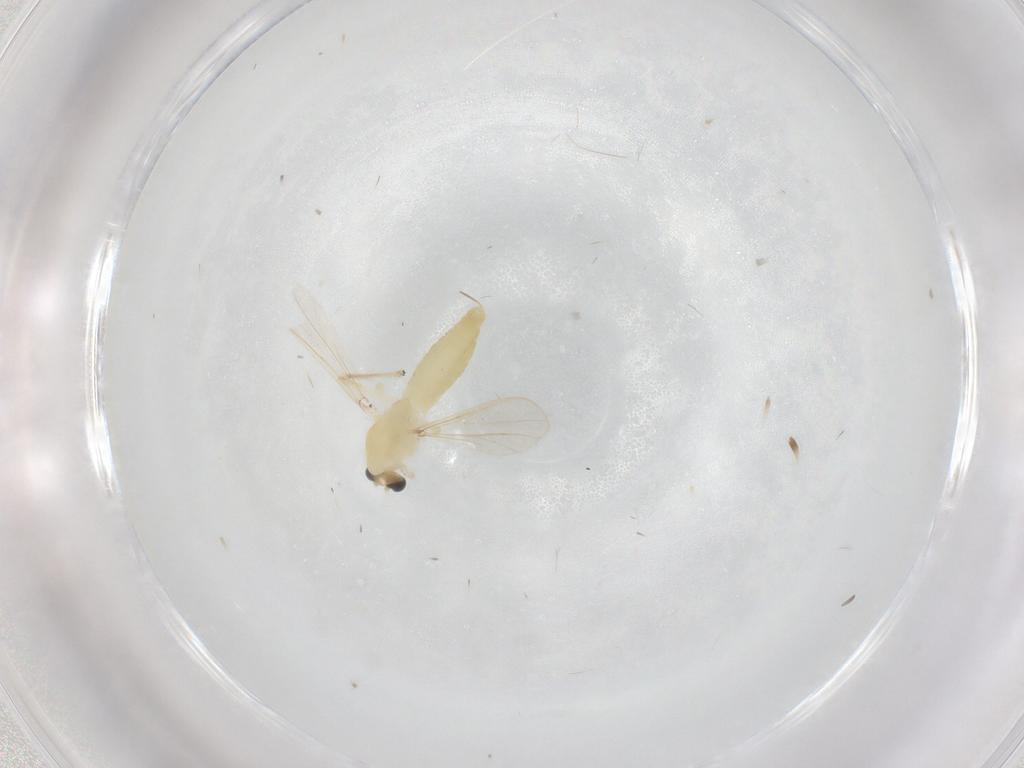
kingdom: Animalia
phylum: Arthropoda
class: Insecta
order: Diptera
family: Chironomidae
